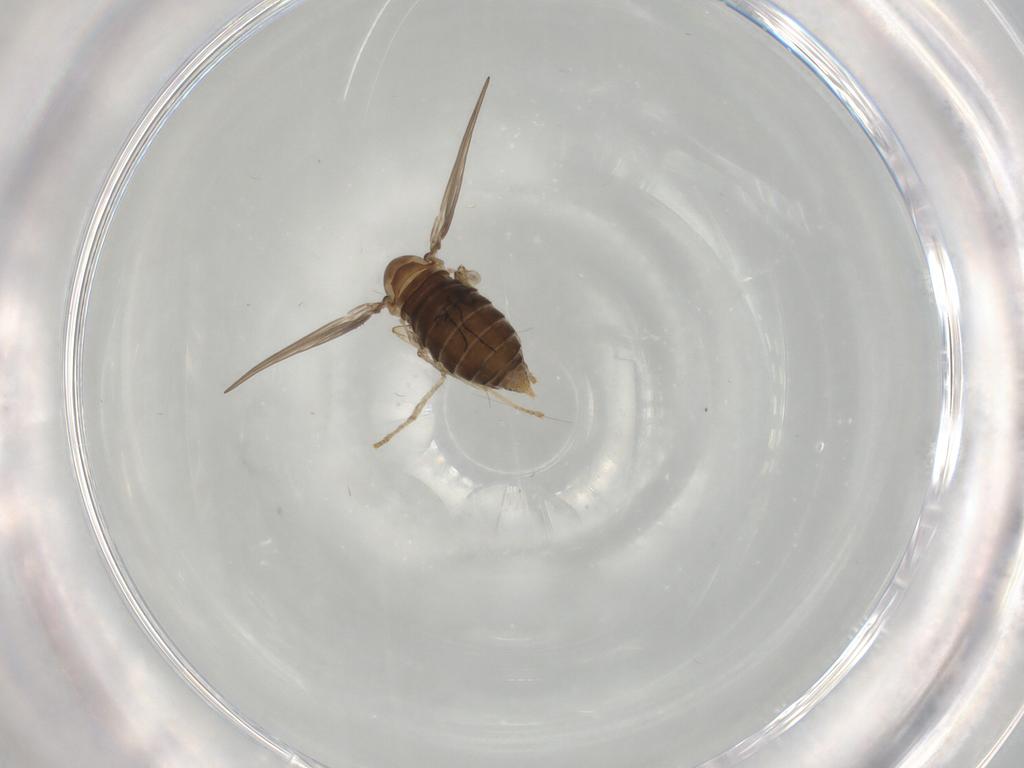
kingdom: Animalia
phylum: Arthropoda
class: Insecta
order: Diptera
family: Psychodidae
